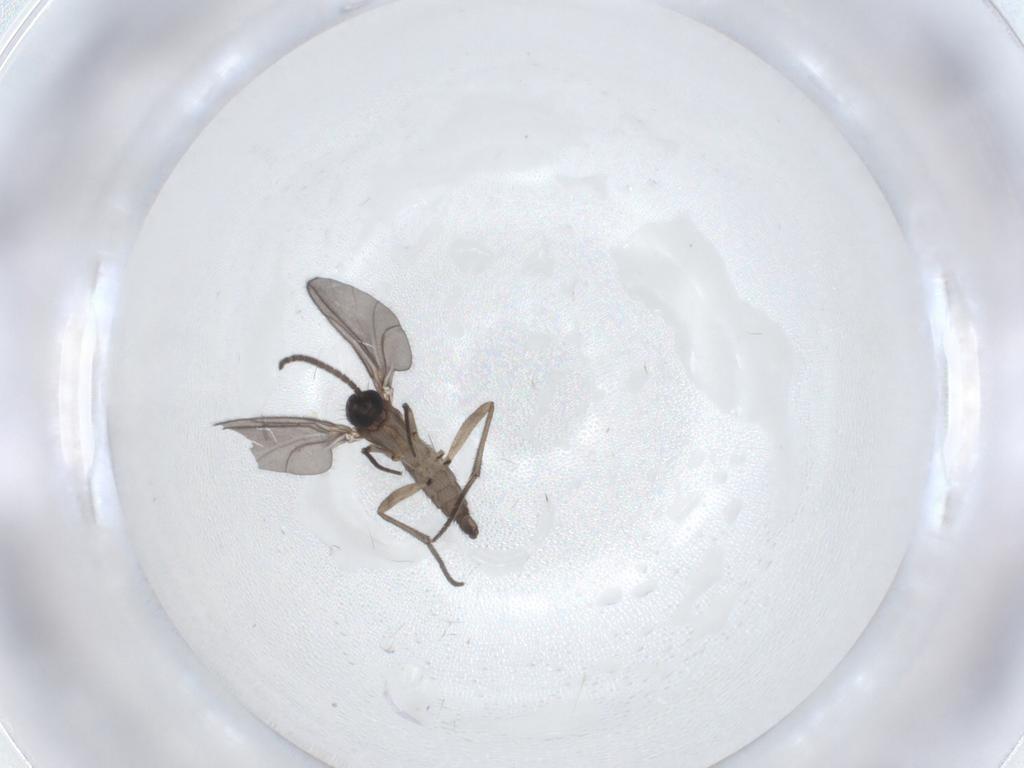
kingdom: Animalia
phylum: Arthropoda
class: Insecta
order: Diptera
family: Sciaridae
